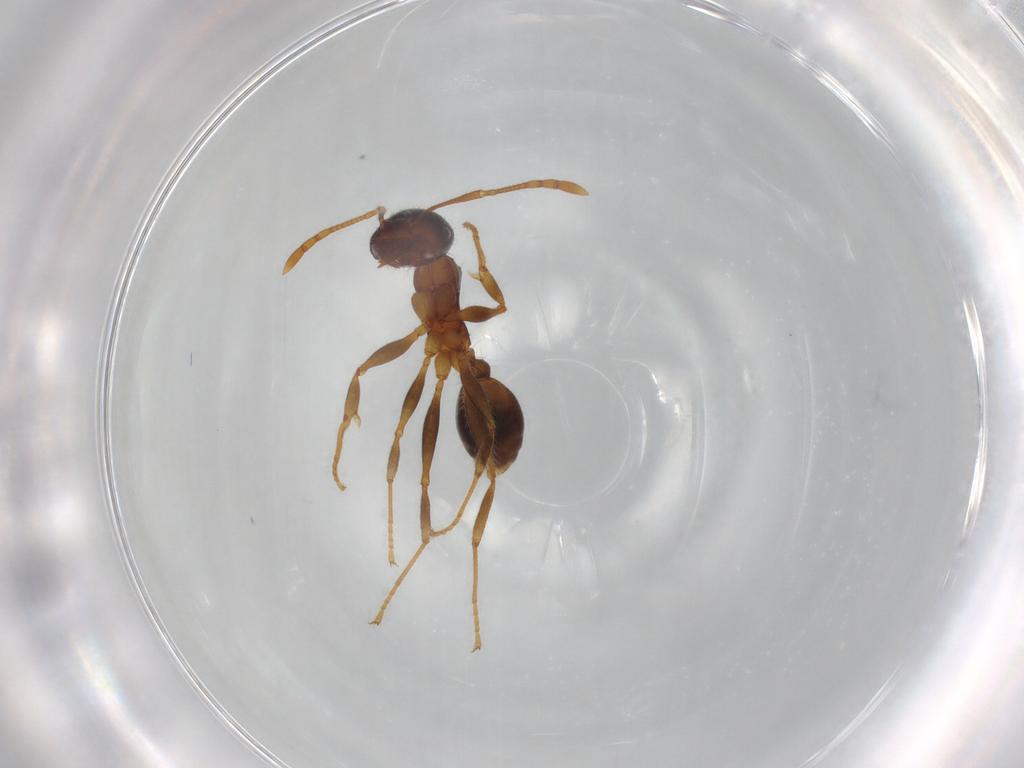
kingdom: Animalia
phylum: Arthropoda
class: Insecta
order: Hymenoptera
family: Formicidae
